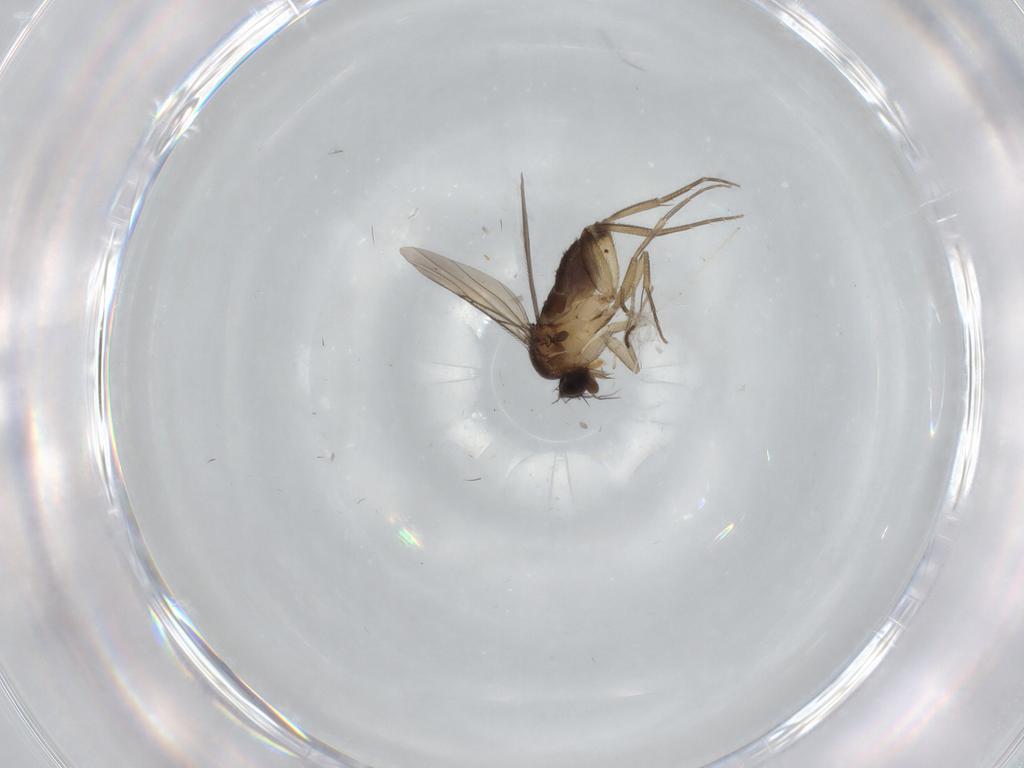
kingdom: Animalia
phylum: Arthropoda
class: Insecta
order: Diptera
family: Phoridae
